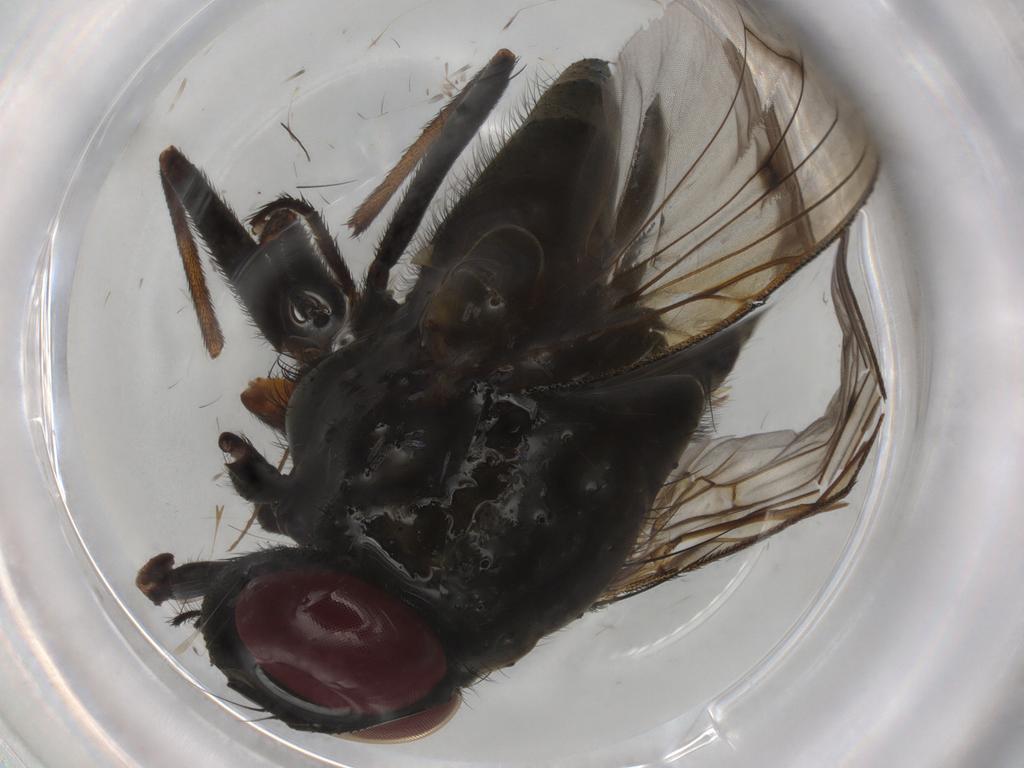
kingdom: Animalia
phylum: Arthropoda
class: Insecta
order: Diptera
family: Muscidae
